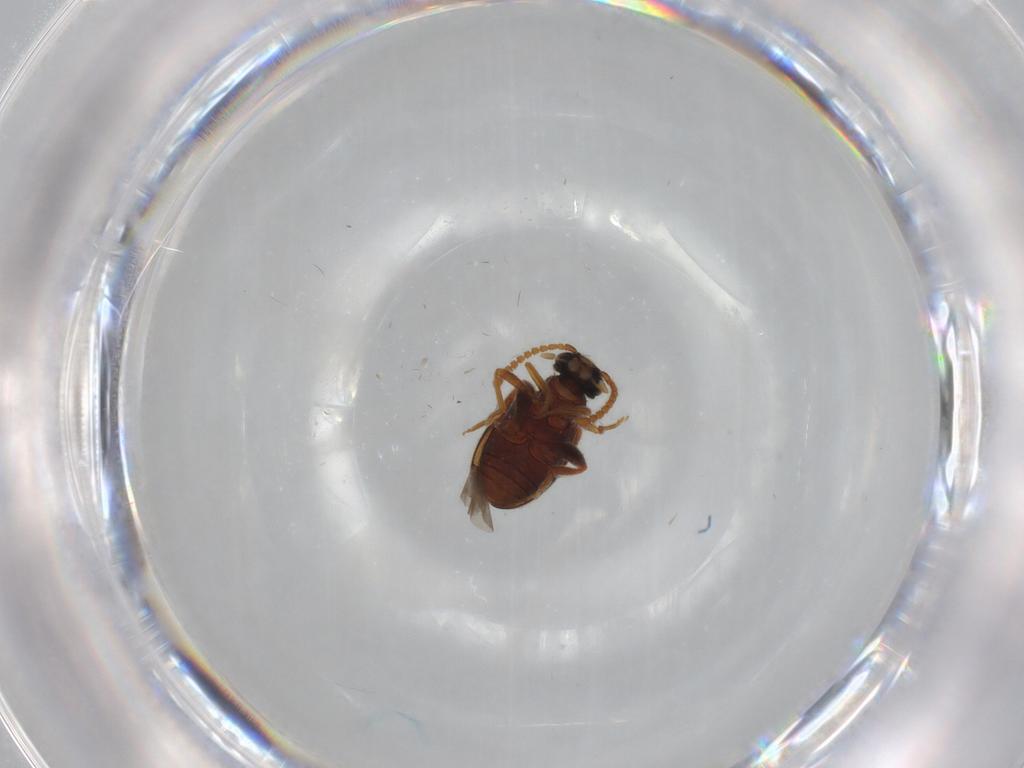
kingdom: Animalia
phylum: Arthropoda
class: Insecta
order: Coleoptera
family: Aderidae
